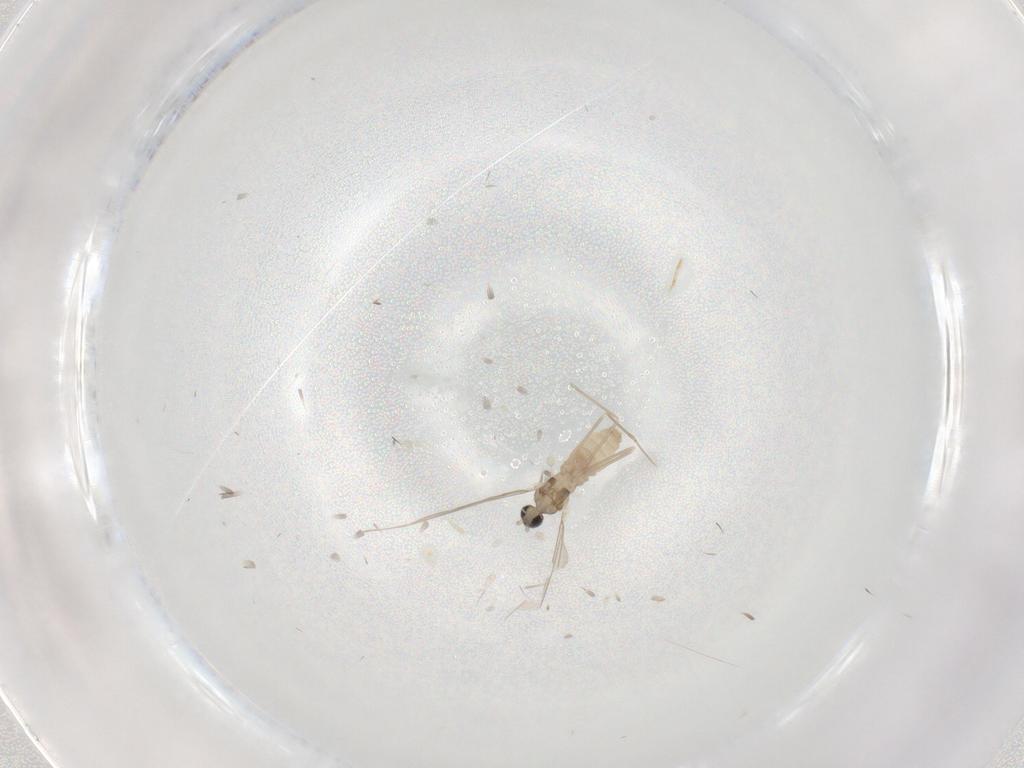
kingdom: Animalia
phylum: Arthropoda
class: Insecta
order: Diptera
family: Cecidomyiidae
